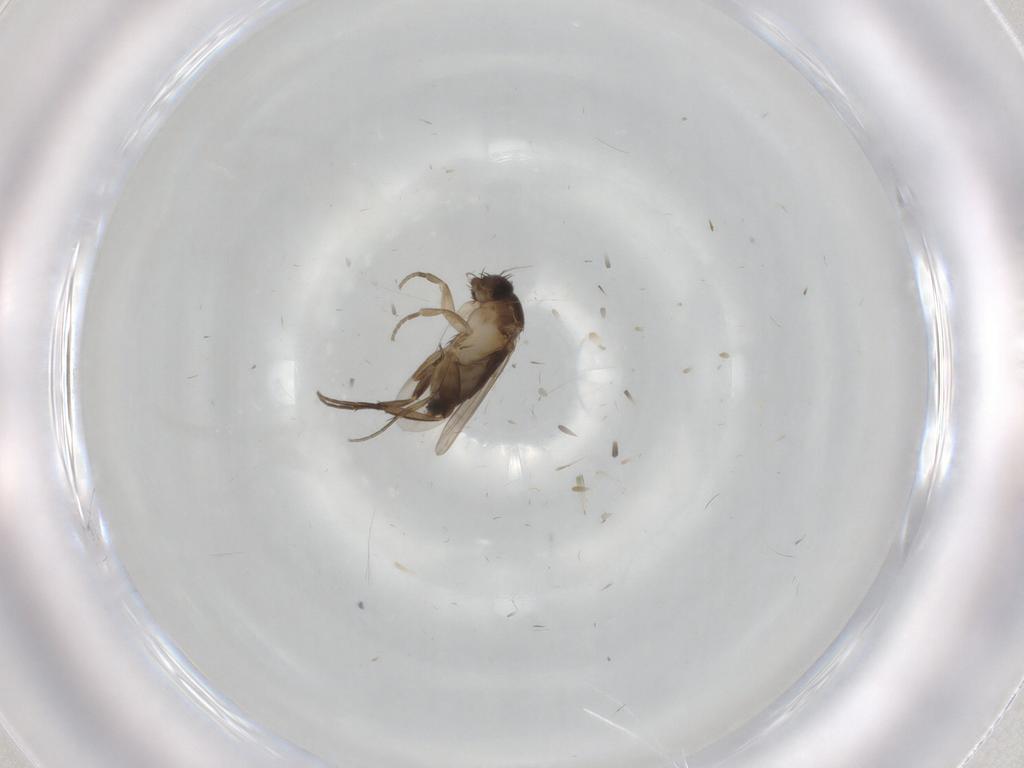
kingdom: Animalia
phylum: Arthropoda
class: Insecta
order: Diptera
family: Phoridae
